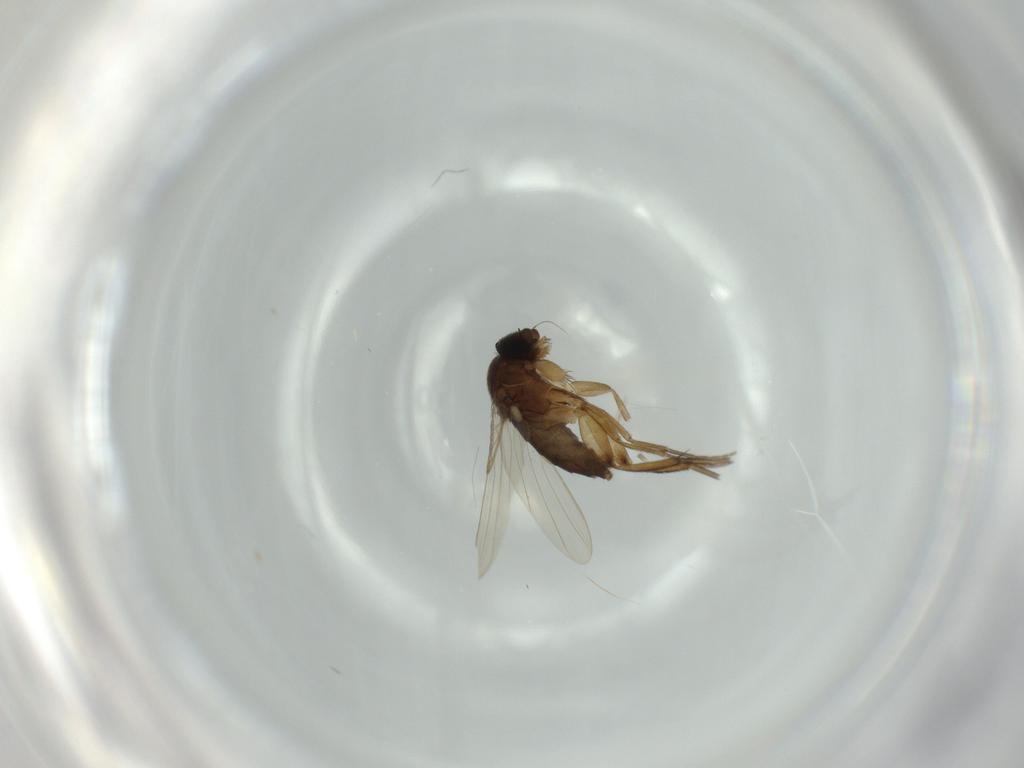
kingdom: Animalia
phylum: Arthropoda
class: Insecta
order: Diptera
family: Phoridae
